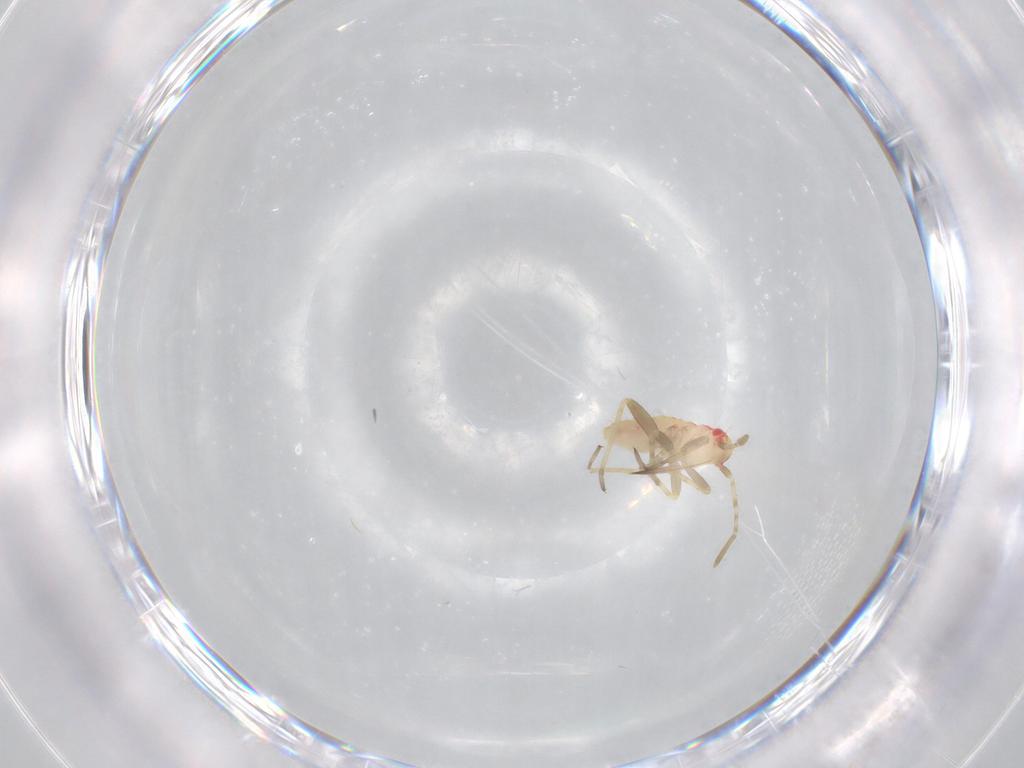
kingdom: Animalia
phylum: Arthropoda
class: Insecta
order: Hemiptera
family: Miridae
